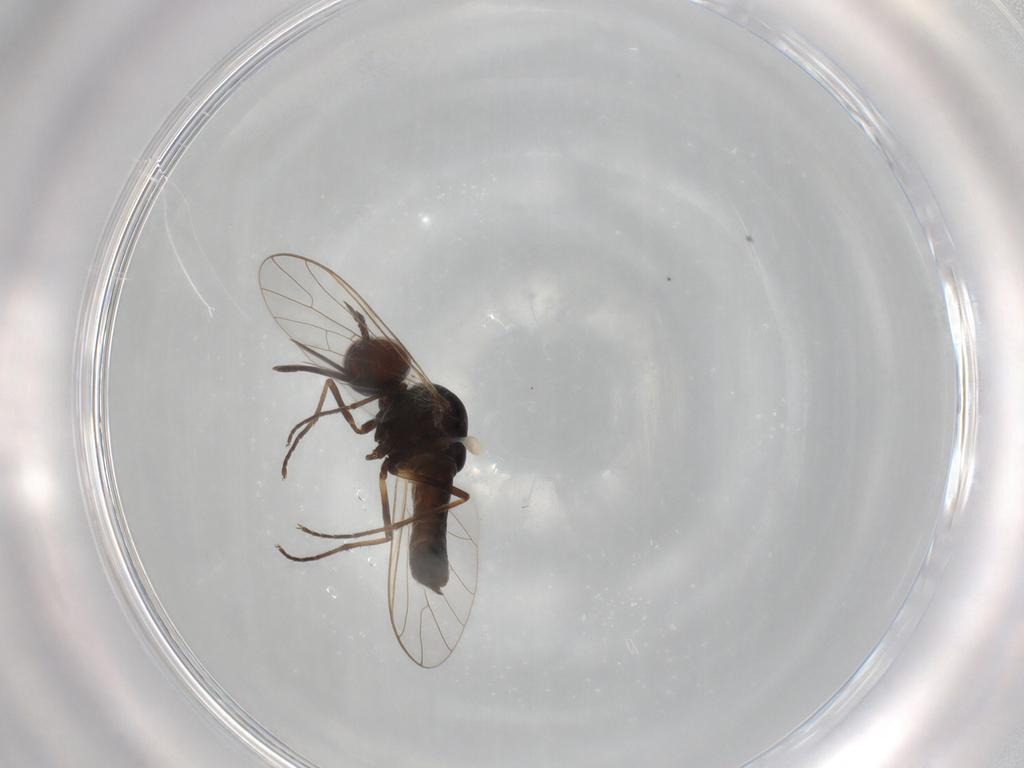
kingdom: Animalia
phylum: Arthropoda
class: Insecta
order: Diptera
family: Bombyliidae
